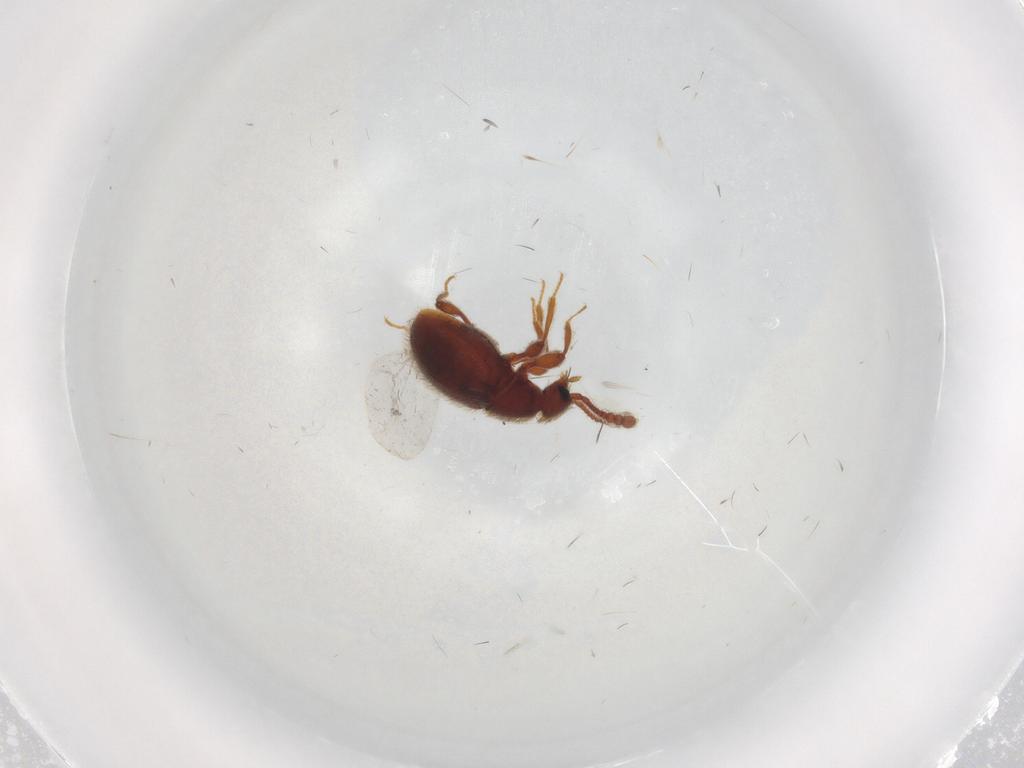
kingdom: Animalia
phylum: Arthropoda
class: Insecta
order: Coleoptera
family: Staphylinidae
